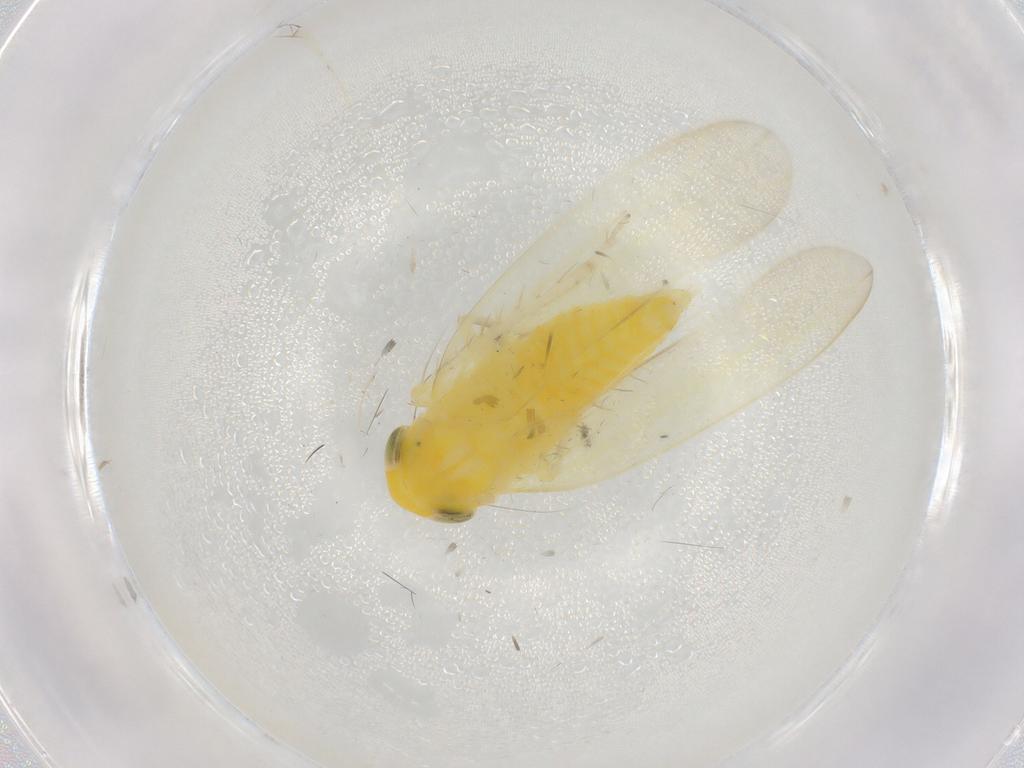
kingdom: Animalia
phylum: Arthropoda
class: Insecta
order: Hemiptera
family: Cicadellidae
